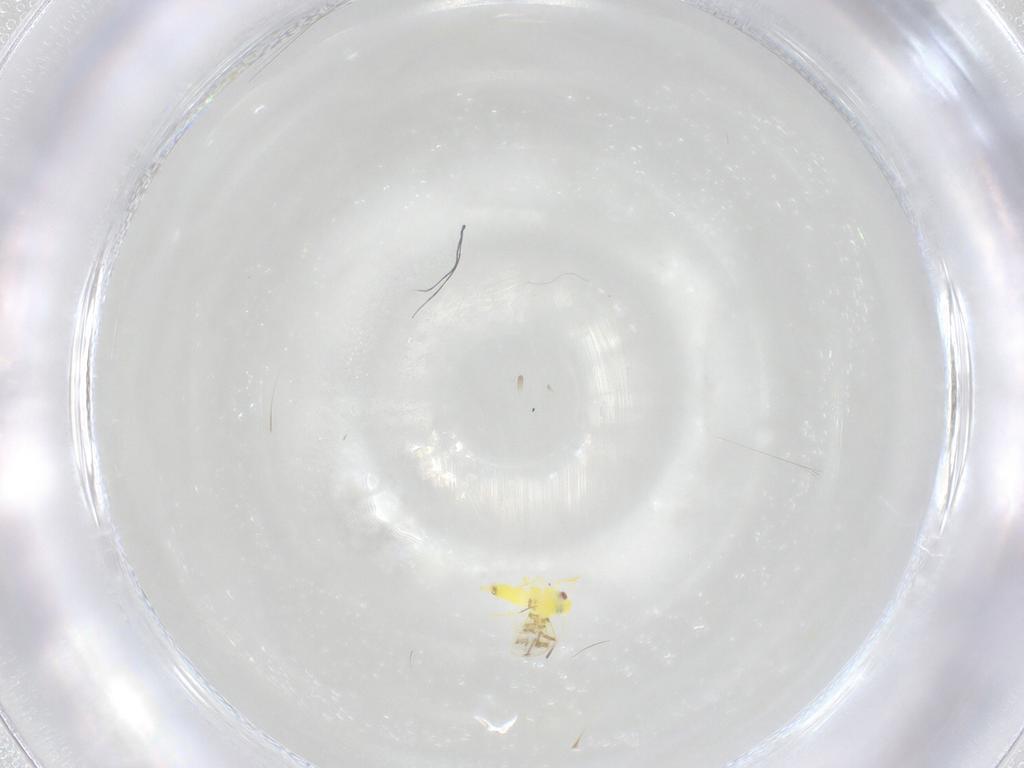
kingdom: Animalia
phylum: Arthropoda
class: Insecta
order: Hemiptera
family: Aleyrodidae
